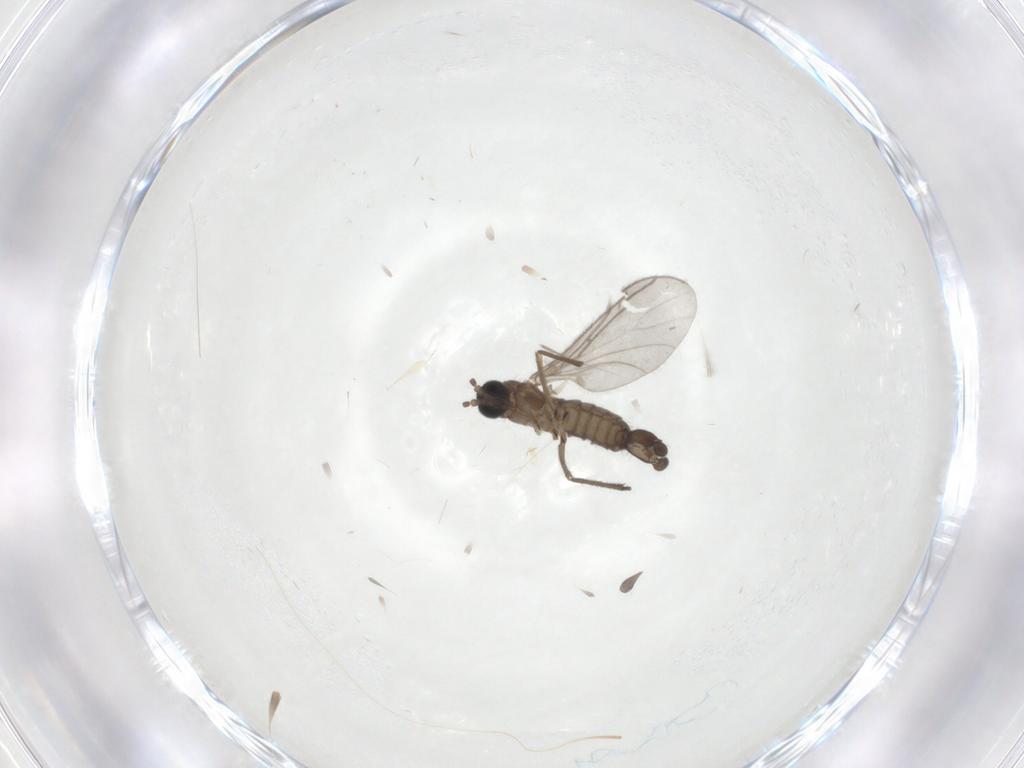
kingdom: Animalia
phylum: Arthropoda
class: Insecta
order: Diptera
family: Sciaridae
